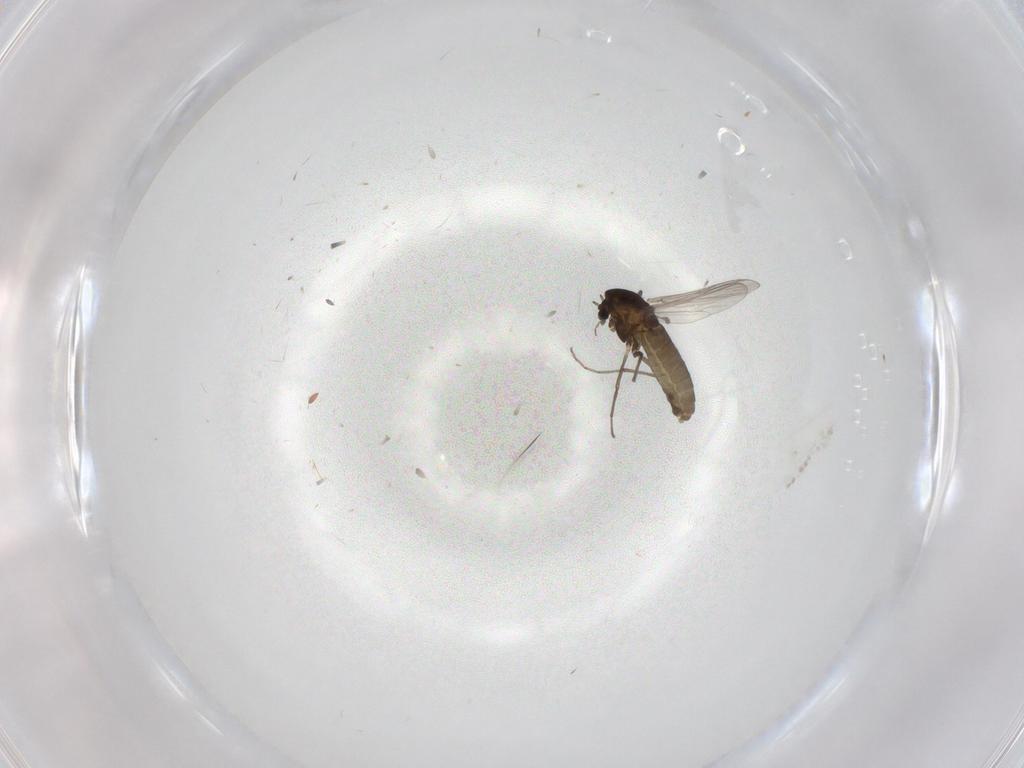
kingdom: Animalia
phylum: Arthropoda
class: Insecta
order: Diptera
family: Chironomidae
